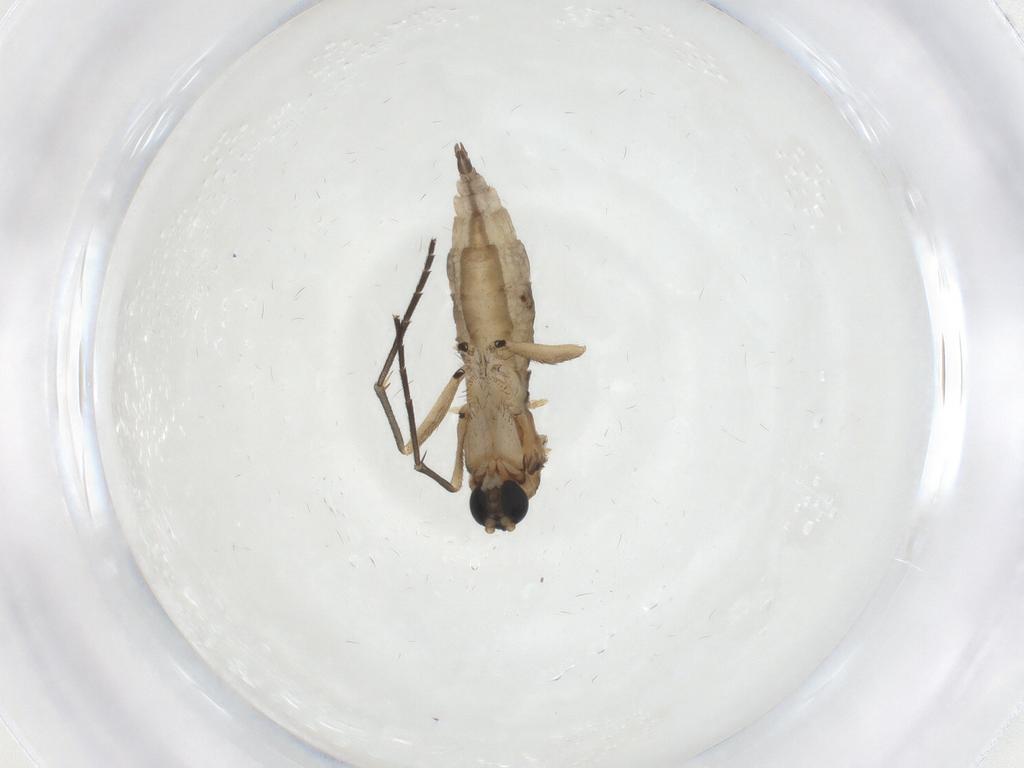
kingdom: Animalia
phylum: Arthropoda
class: Insecta
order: Diptera
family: Sciaridae
